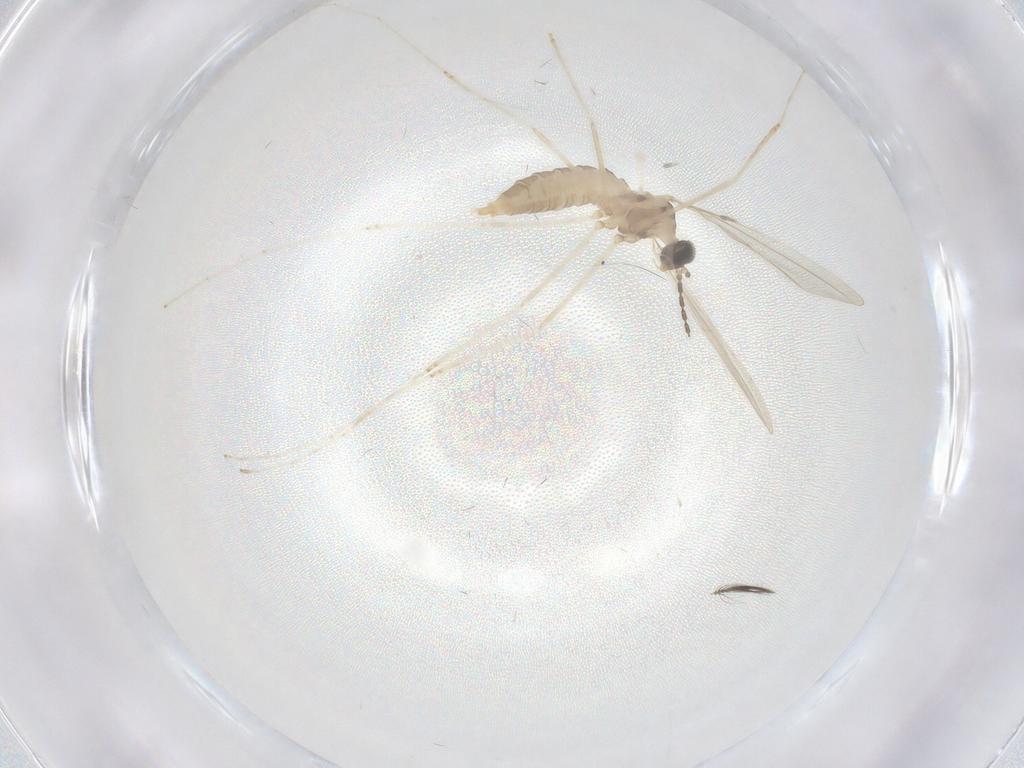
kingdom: Animalia
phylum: Arthropoda
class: Insecta
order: Diptera
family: Cecidomyiidae
